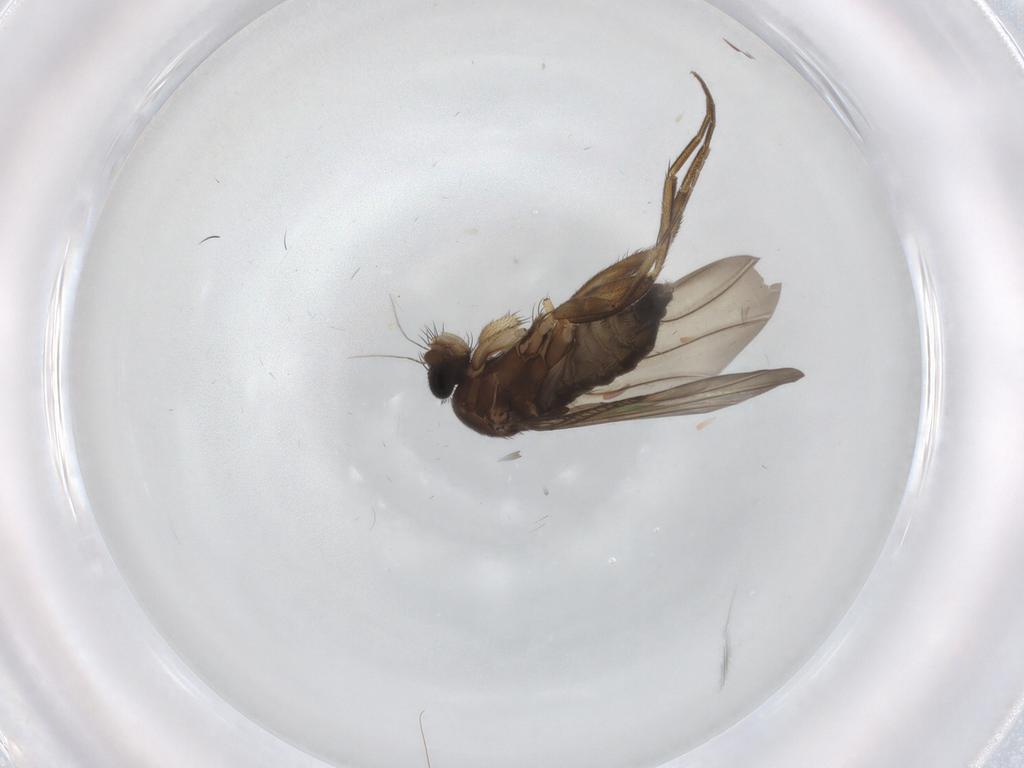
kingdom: Animalia
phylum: Arthropoda
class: Insecta
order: Diptera
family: Phoridae
